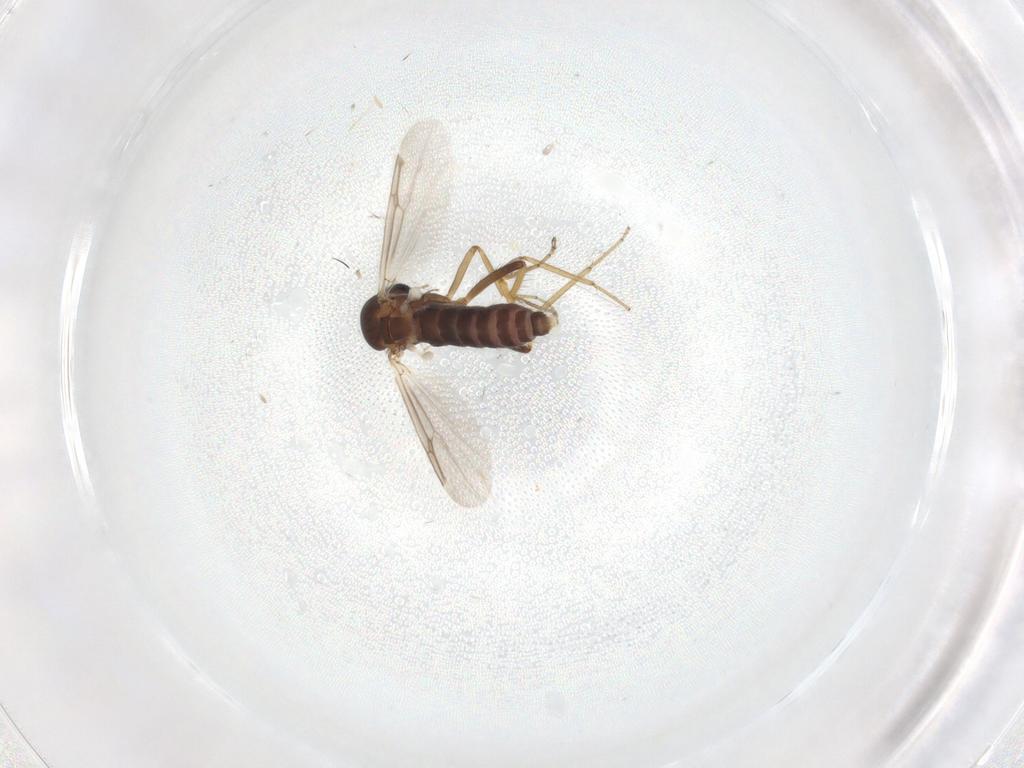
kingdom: Animalia
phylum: Arthropoda
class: Insecta
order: Diptera
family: Ceratopogonidae
